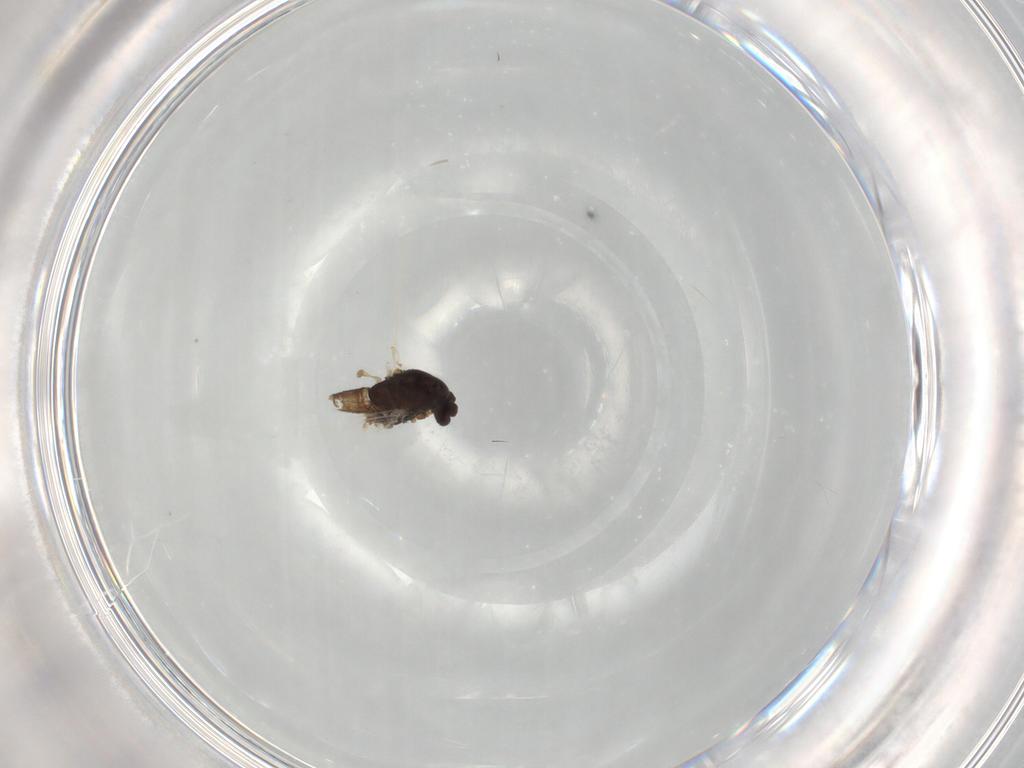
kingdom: Animalia
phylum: Arthropoda
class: Insecta
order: Diptera
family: Chironomidae
